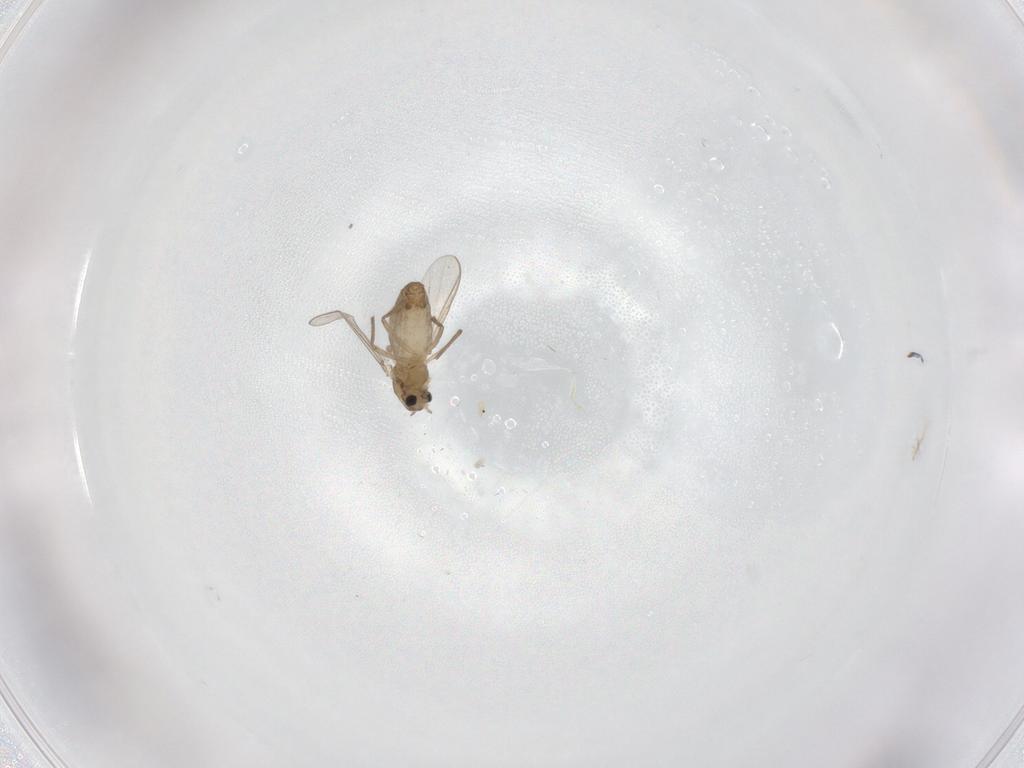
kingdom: Animalia
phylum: Arthropoda
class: Insecta
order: Diptera
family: Chironomidae
